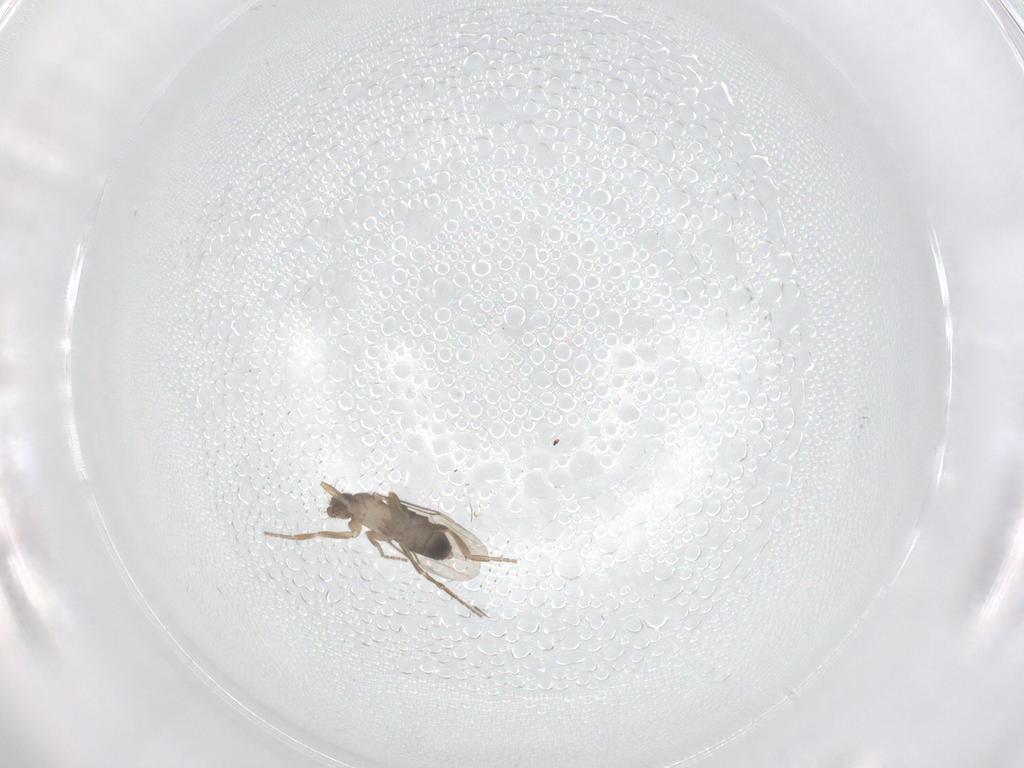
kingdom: Animalia
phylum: Arthropoda
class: Insecta
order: Diptera
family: Phoridae
